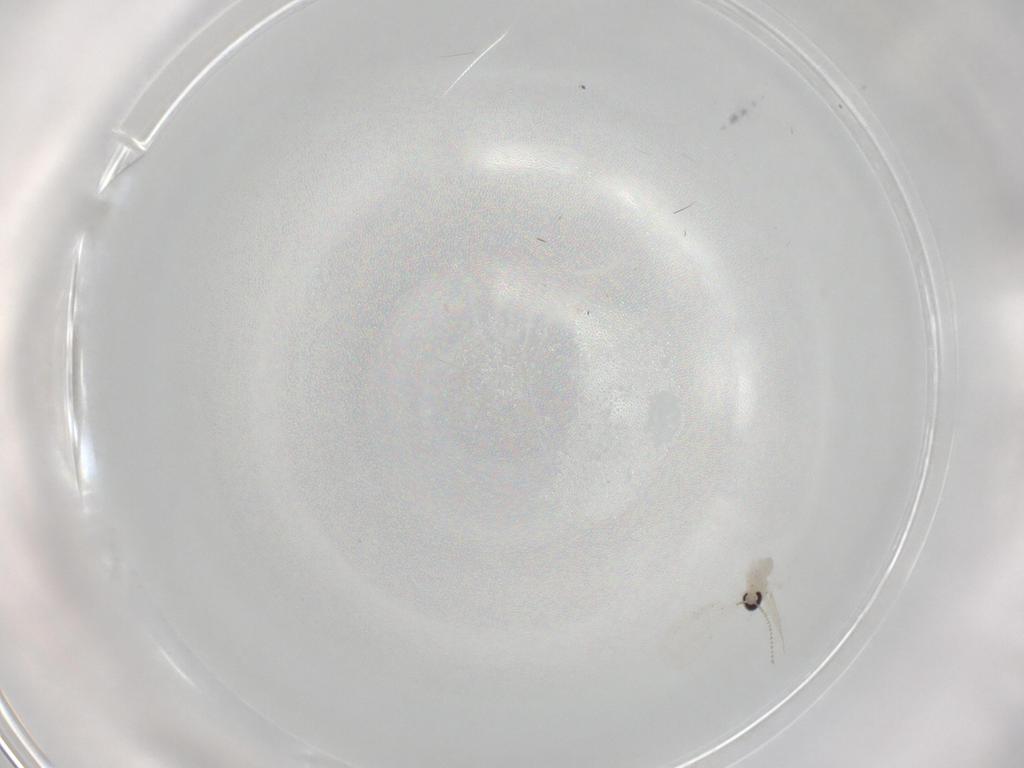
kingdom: Animalia
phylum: Arthropoda
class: Insecta
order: Diptera
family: Cecidomyiidae
